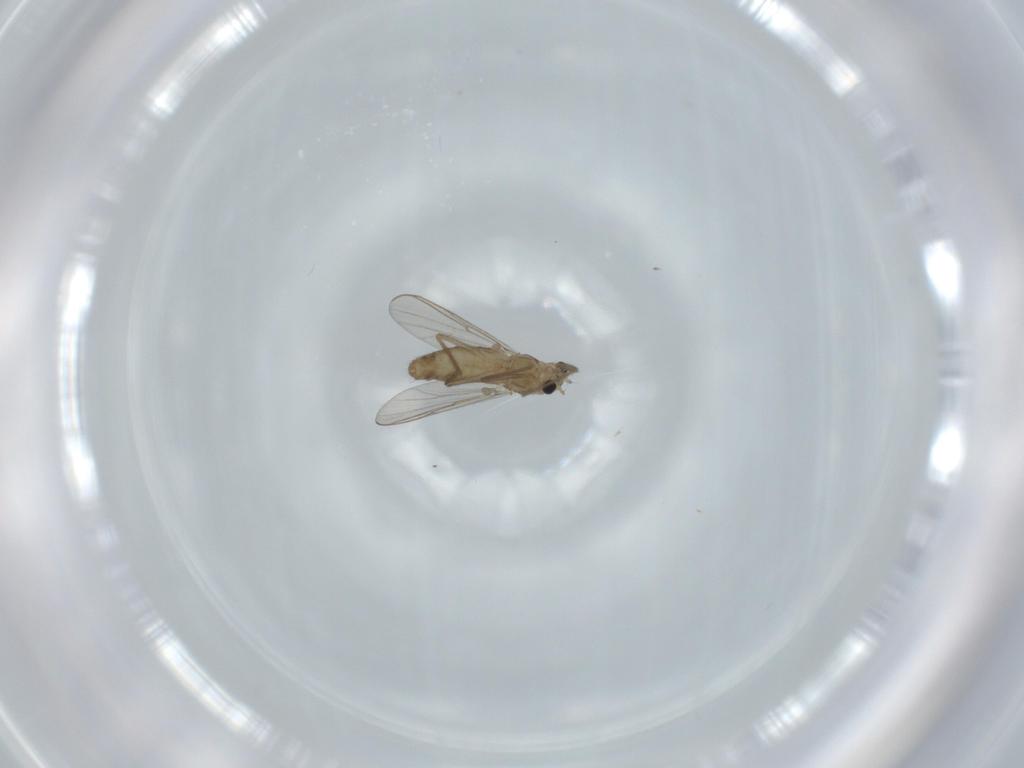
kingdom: Animalia
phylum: Arthropoda
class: Insecta
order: Diptera
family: Chironomidae
